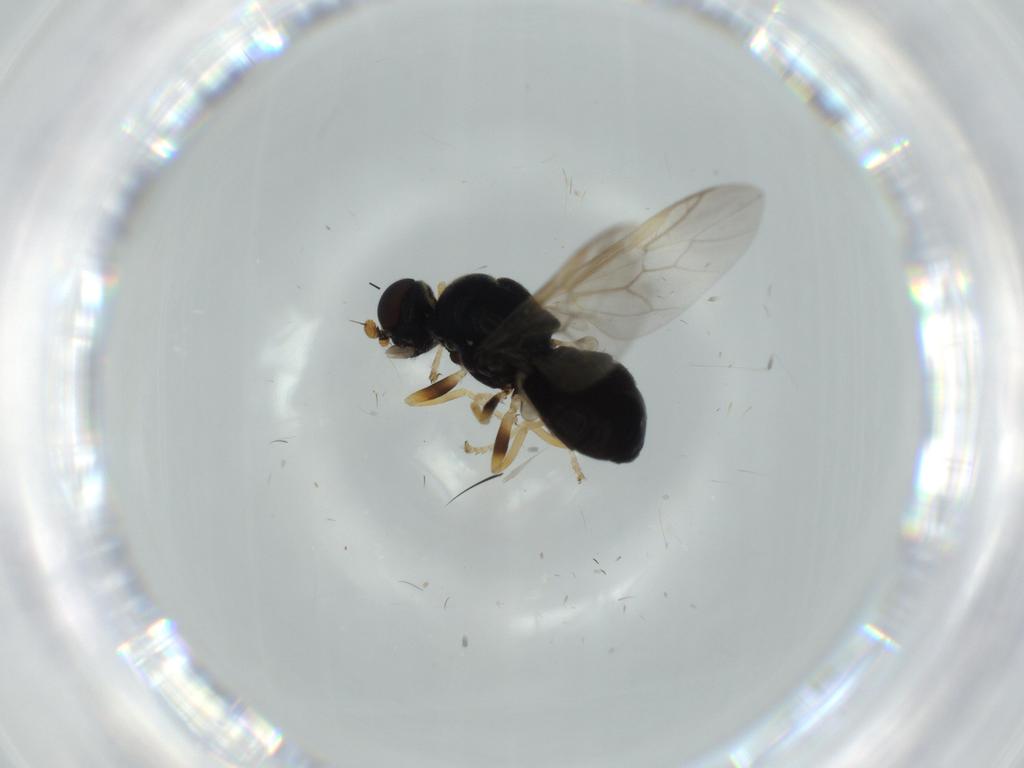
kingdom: Animalia
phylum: Arthropoda
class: Insecta
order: Diptera
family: Stratiomyidae
